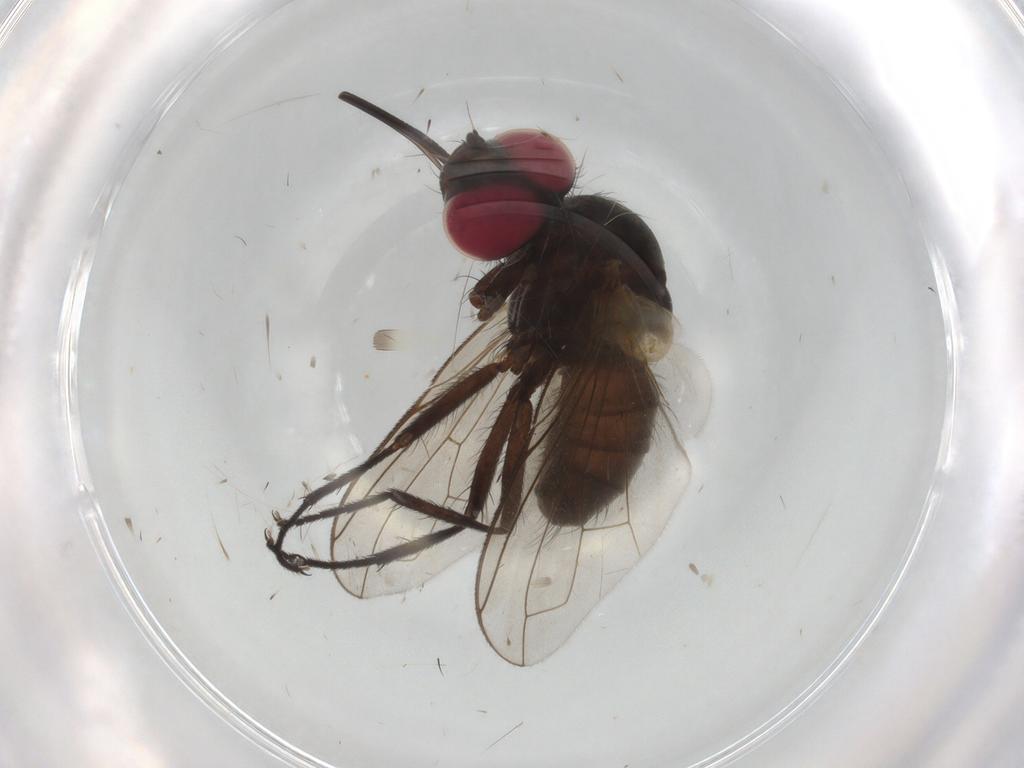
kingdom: Animalia
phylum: Arthropoda
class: Insecta
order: Diptera
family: Tachinidae
